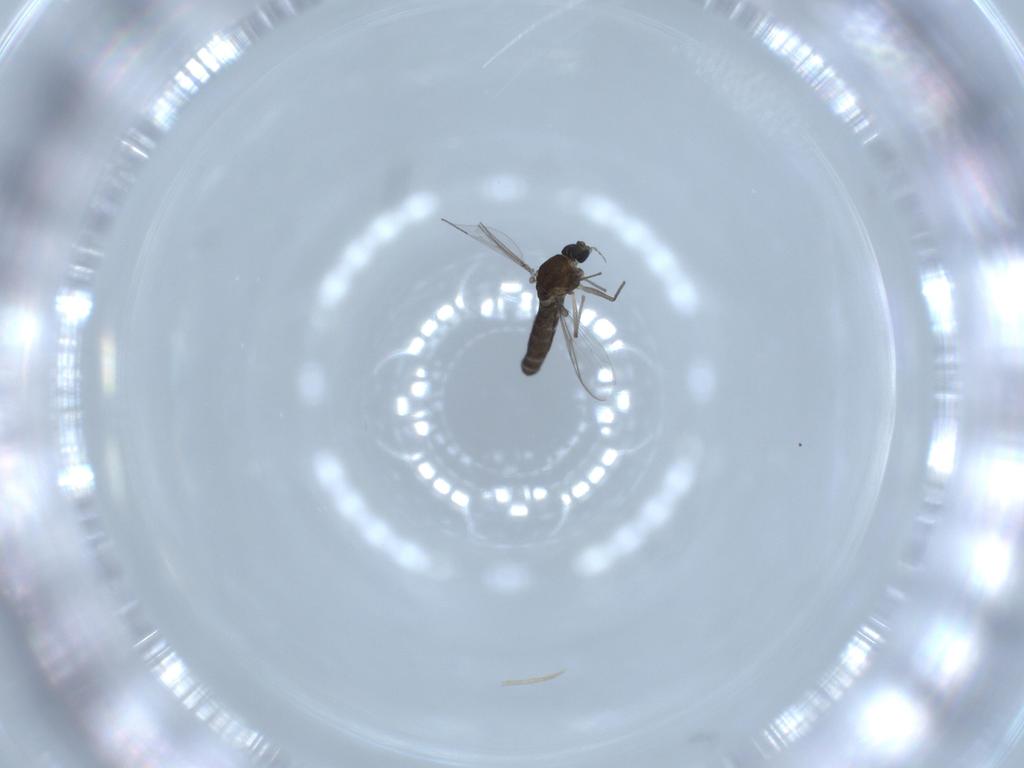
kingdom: Animalia
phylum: Arthropoda
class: Insecta
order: Diptera
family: Chironomidae
